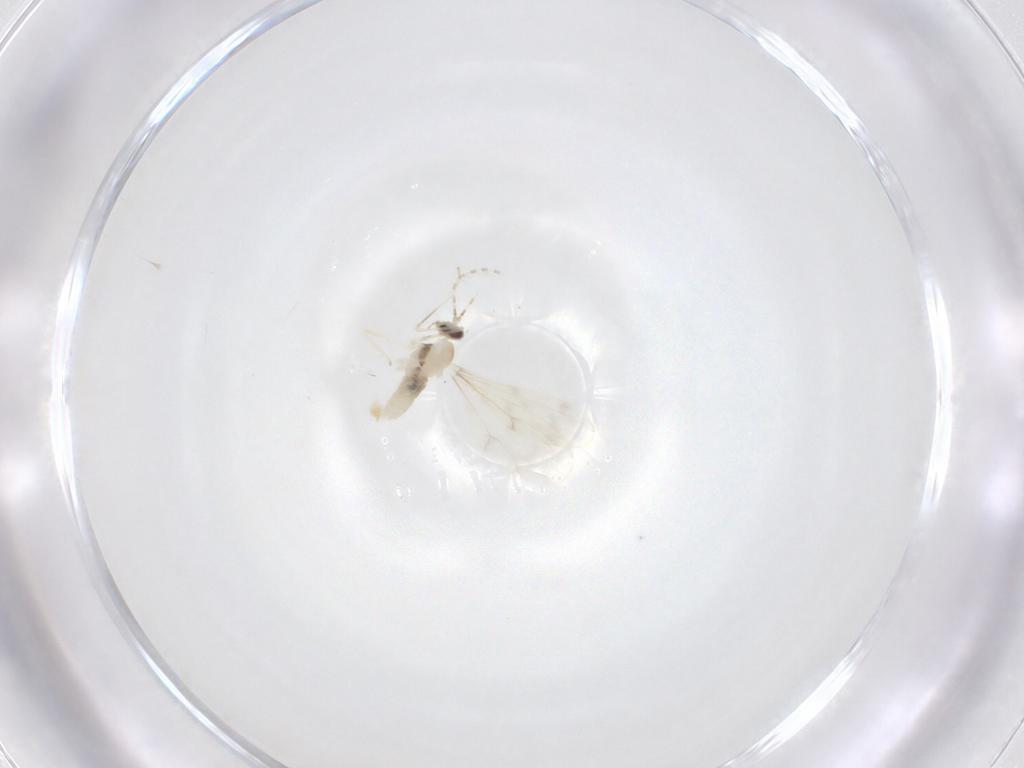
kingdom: Animalia
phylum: Arthropoda
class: Insecta
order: Diptera
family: Cecidomyiidae
